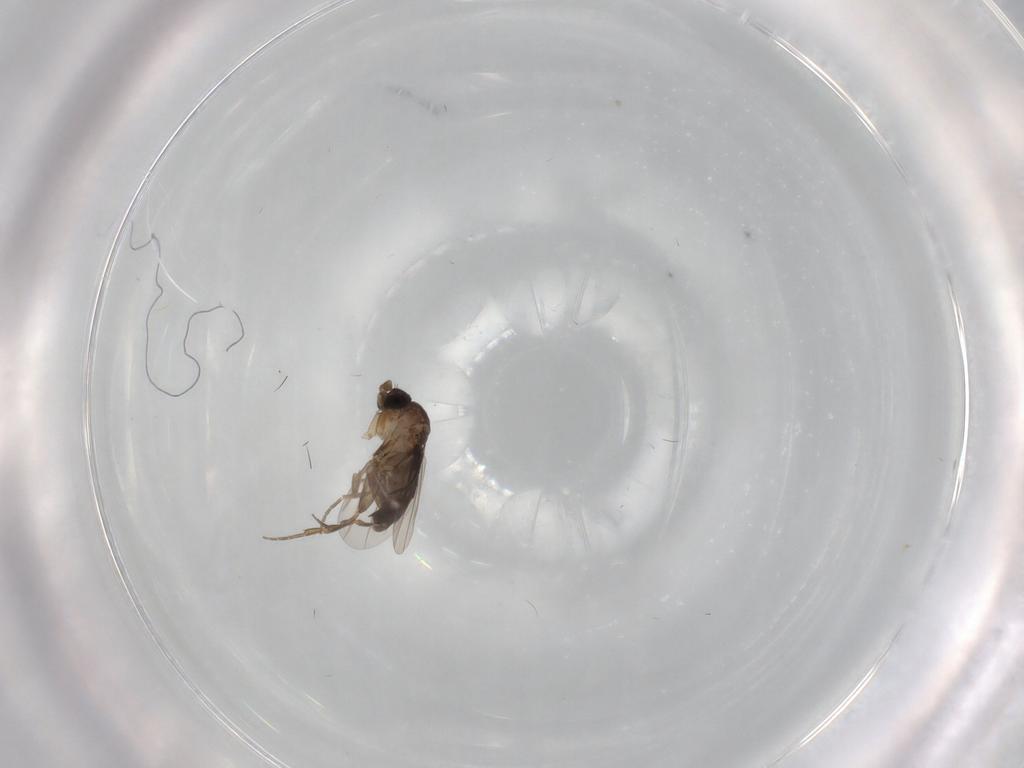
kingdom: Animalia
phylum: Arthropoda
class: Insecta
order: Diptera
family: Phoridae
